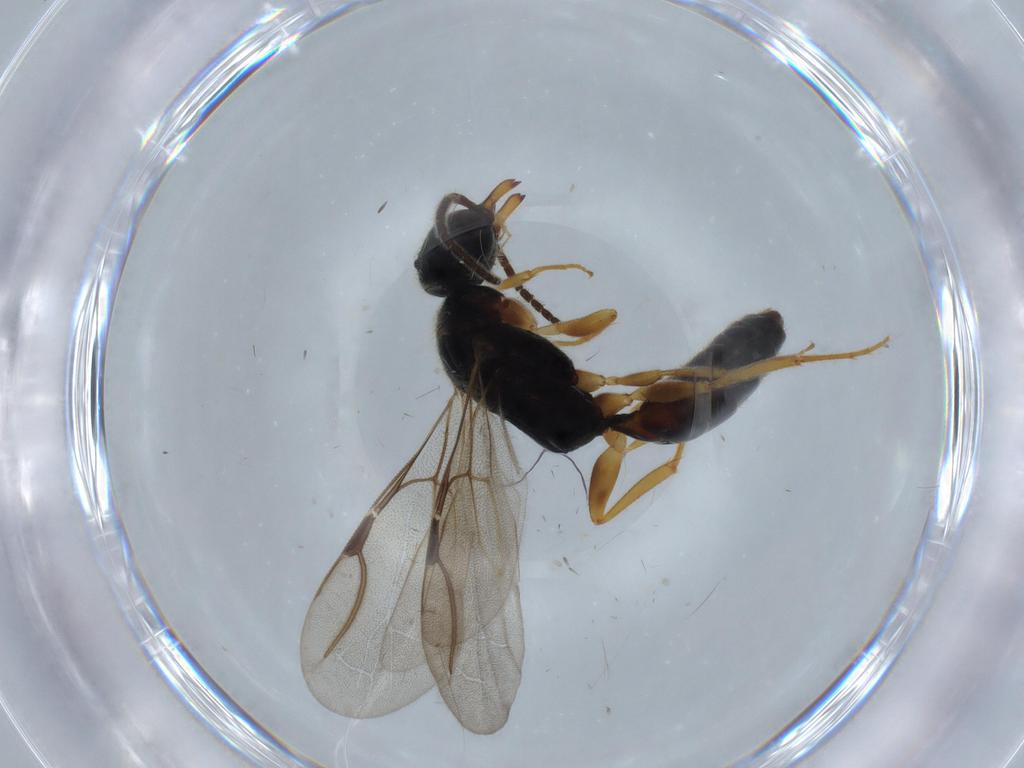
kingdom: Animalia
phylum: Arthropoda
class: Insecta
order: Hymenoptera
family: Bethylidae
